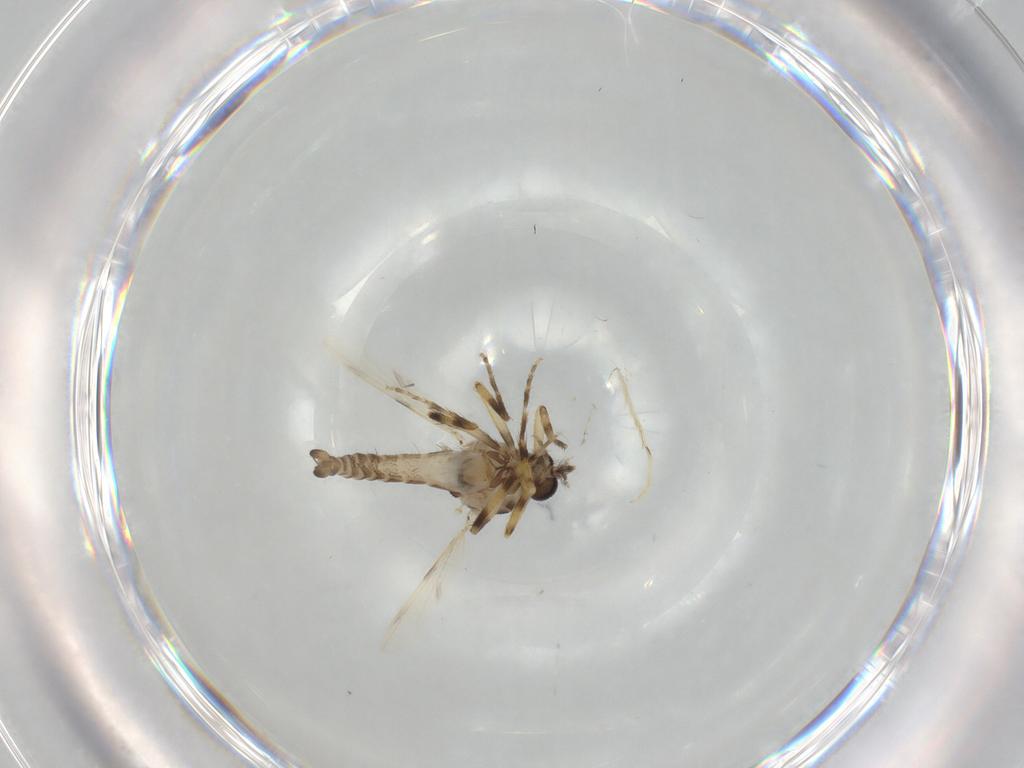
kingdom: Animalia
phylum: Arthropoda
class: Insecta
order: Diptera
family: Ceratopogonidae
